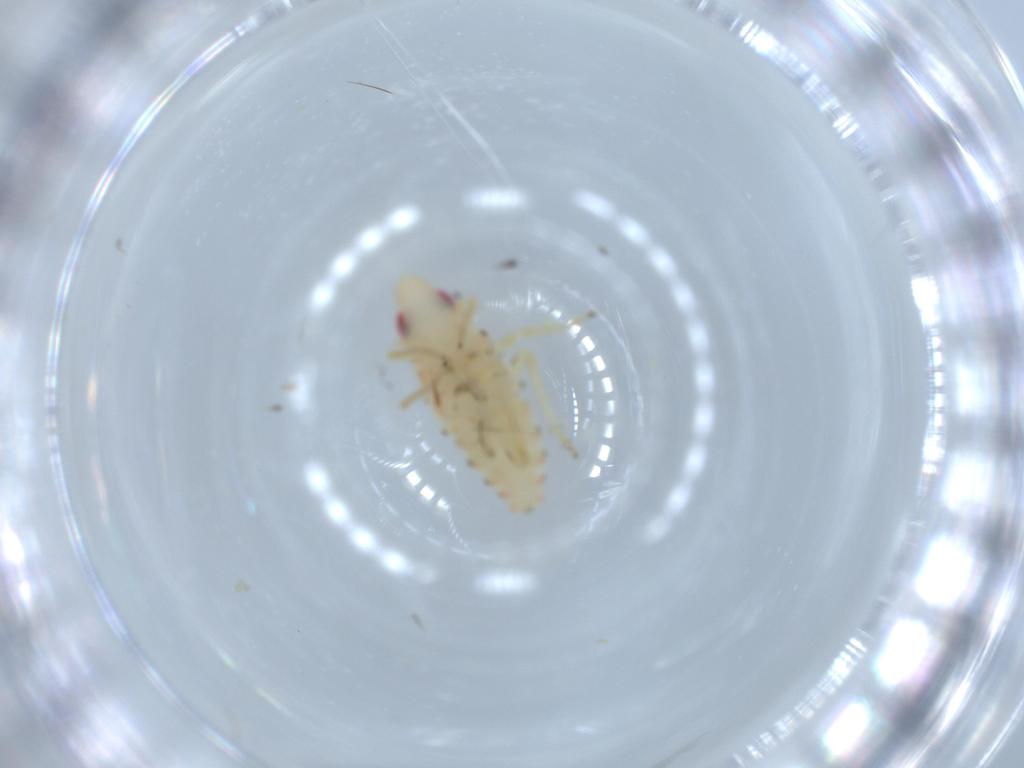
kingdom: Animalia
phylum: Arthropoda
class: Insecta
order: Hemiptera
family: Tropiduchidae
